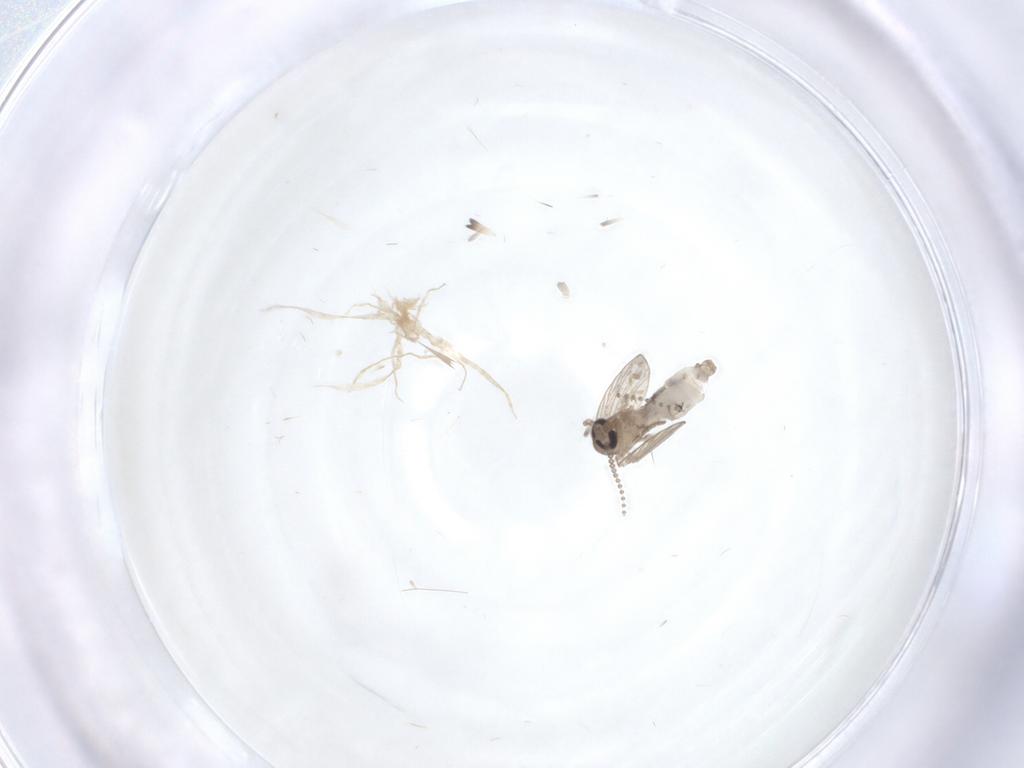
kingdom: Animalia
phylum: Arthropoda
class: Insecta
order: Diptera
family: Psychodidae
